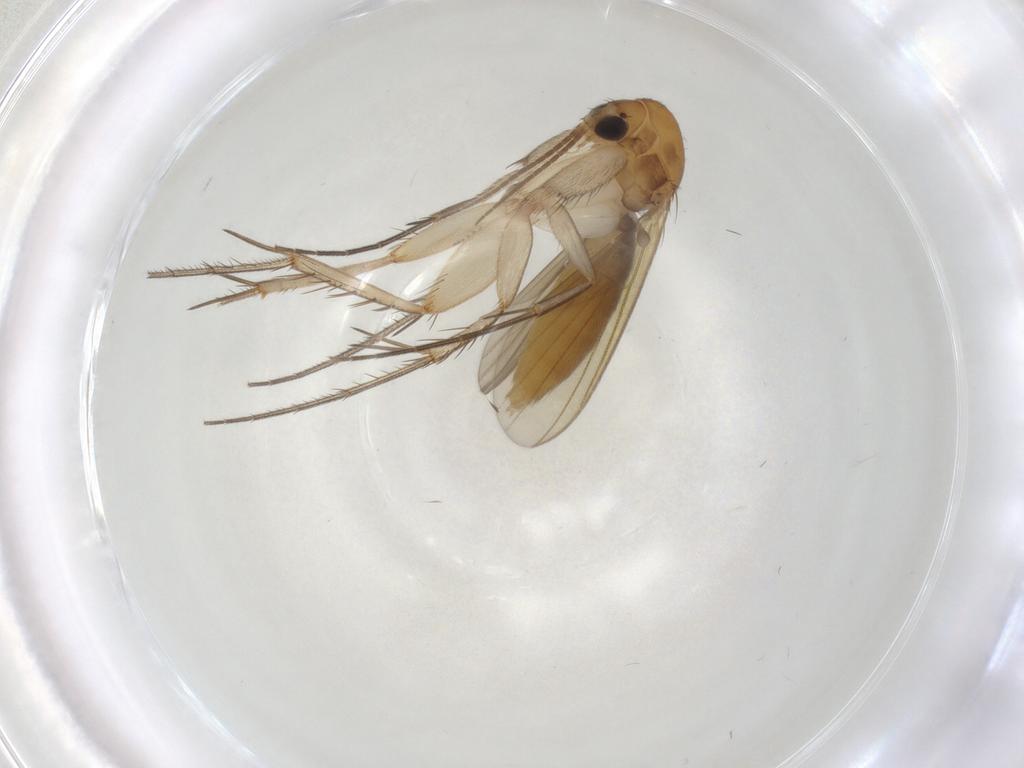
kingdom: Animalia
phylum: Arthropoda
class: Insecta
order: Diptera
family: Mycetophilidae
